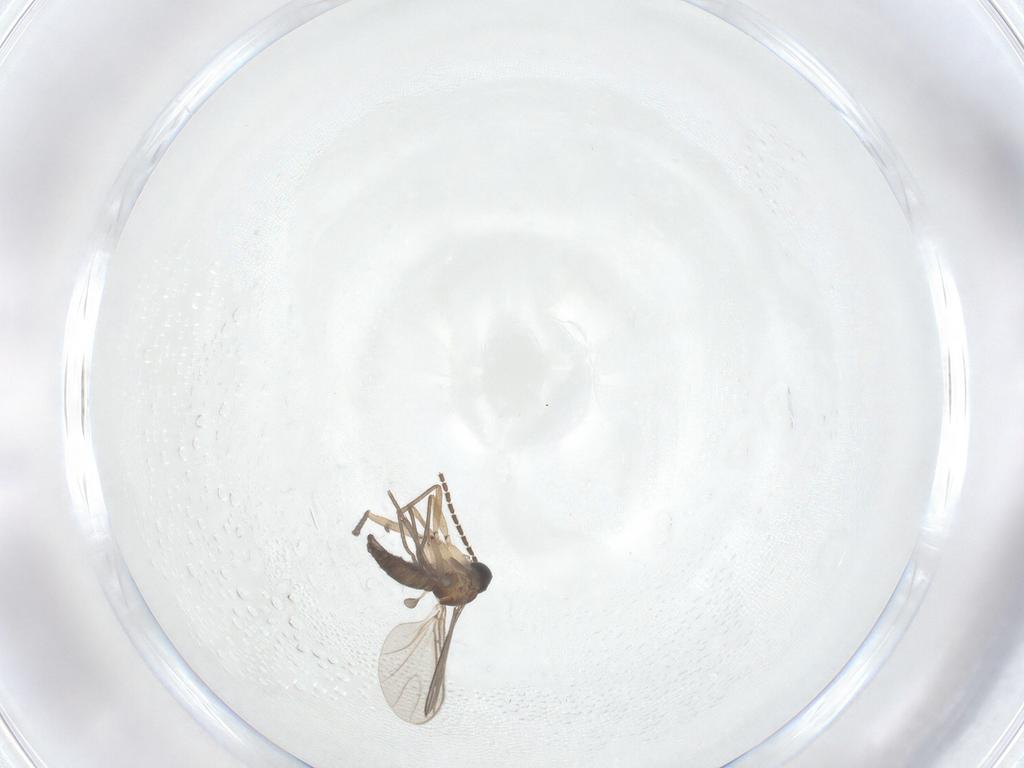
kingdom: Animalia
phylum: Arthropoda
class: Insecta
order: Diptera
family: Sciaridae
